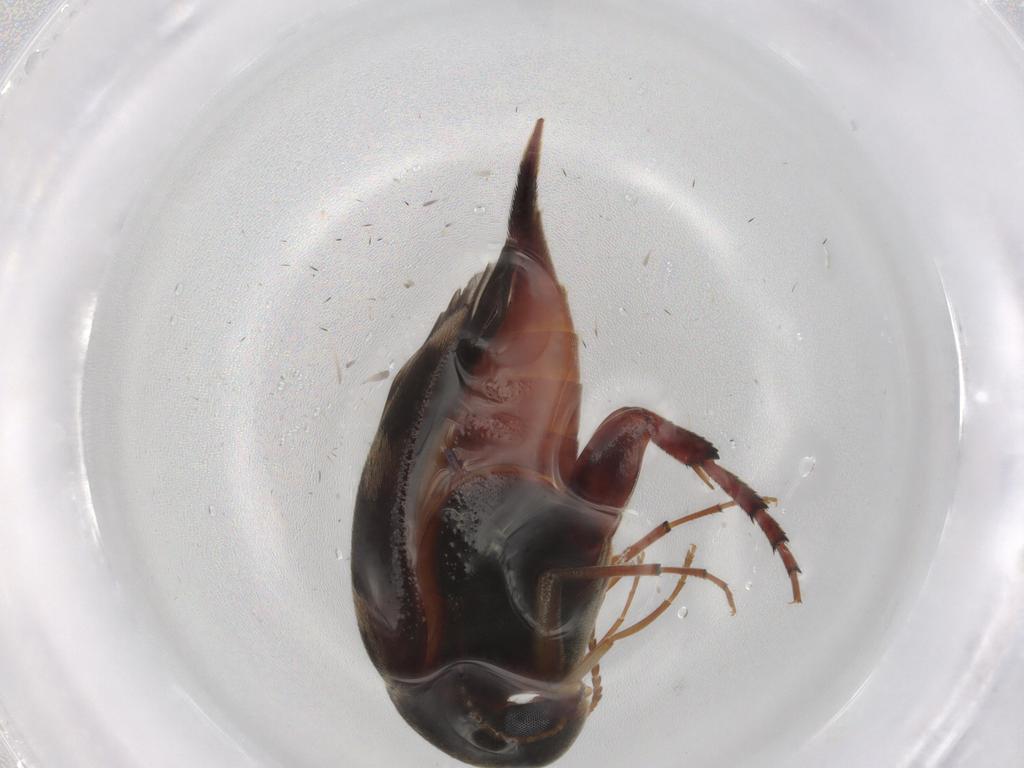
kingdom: Animalia
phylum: Arthropoda
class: Insecta
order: Coleoptera
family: Mordellidae
